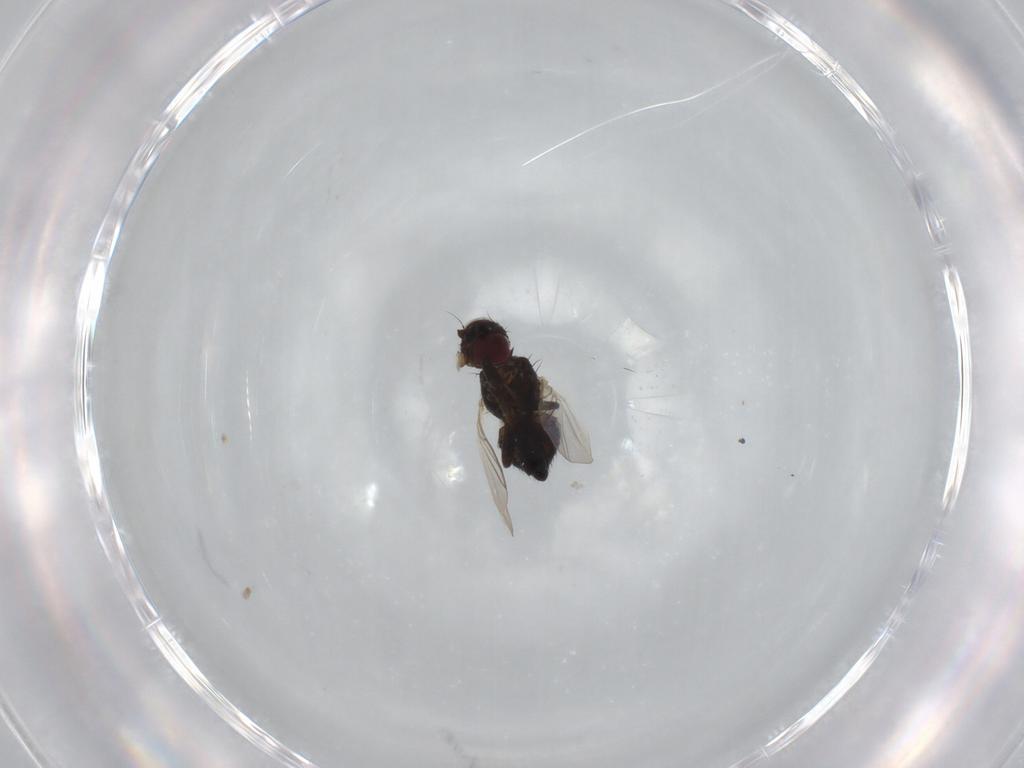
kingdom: Animalia
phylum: Arthropoda
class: Insecta
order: Diptera
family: Agromyzidae
